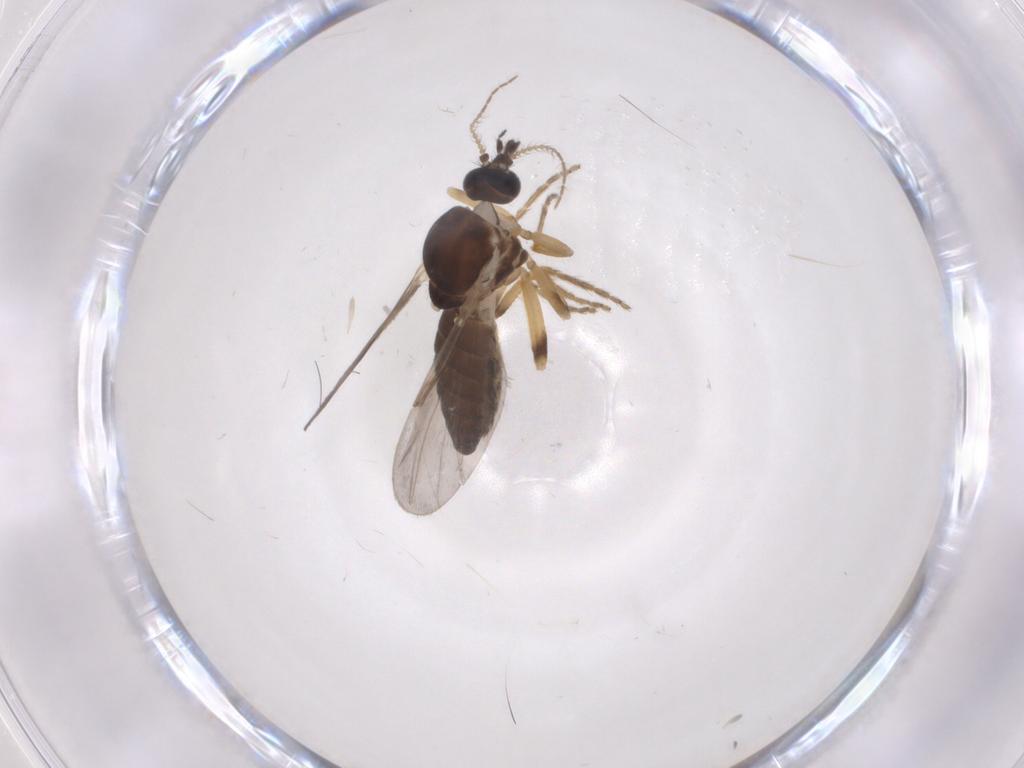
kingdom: Animalia
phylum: Arthropoda
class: Insecta
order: Diptera
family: Ceratopogonidae
